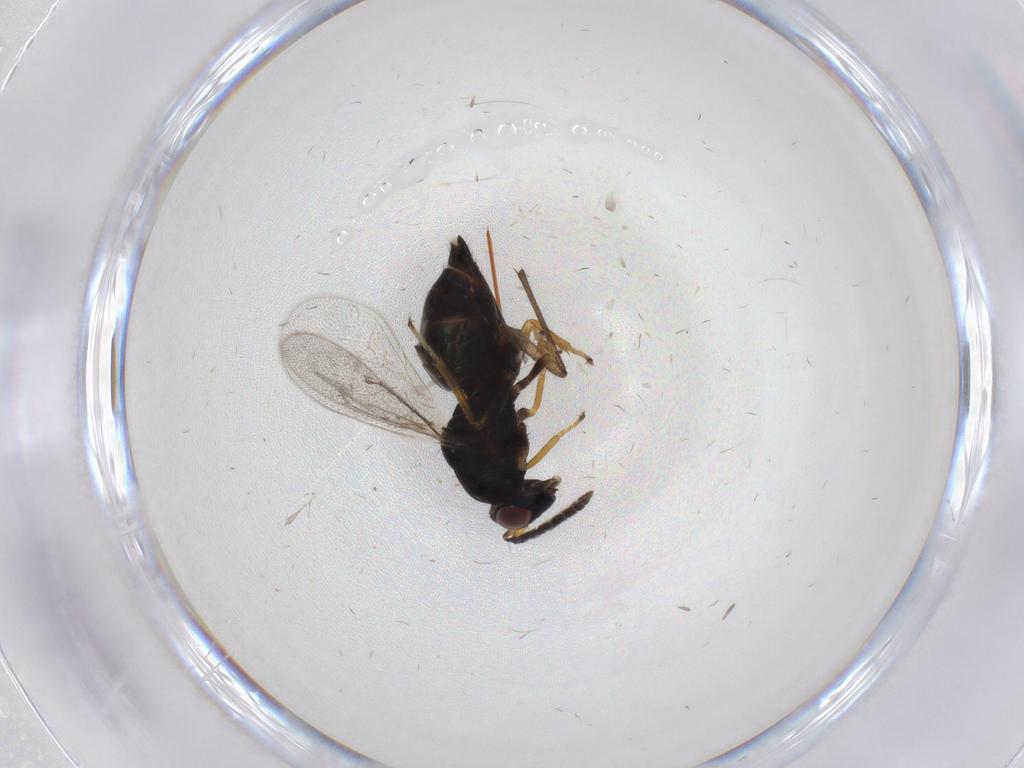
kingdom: Animalia
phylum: Arthropoda
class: Insecta
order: Hymenoptera
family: Eulophidae
